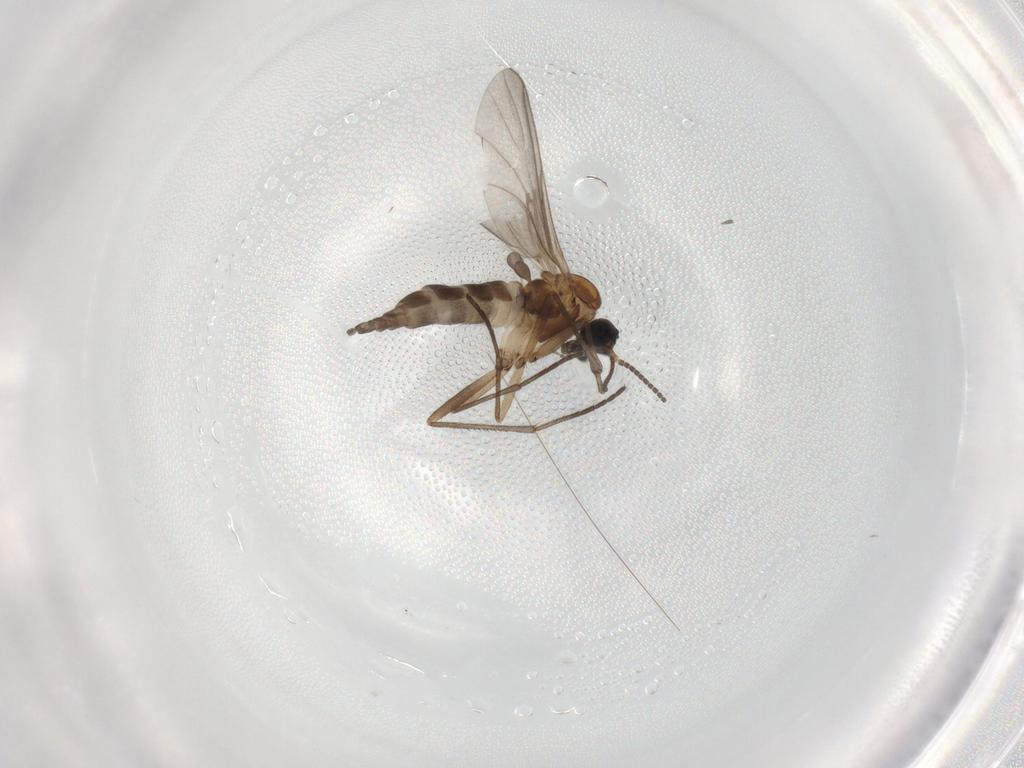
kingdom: Animalia
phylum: Arthropoda
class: Insecta
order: Diptera
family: Sciaridae
